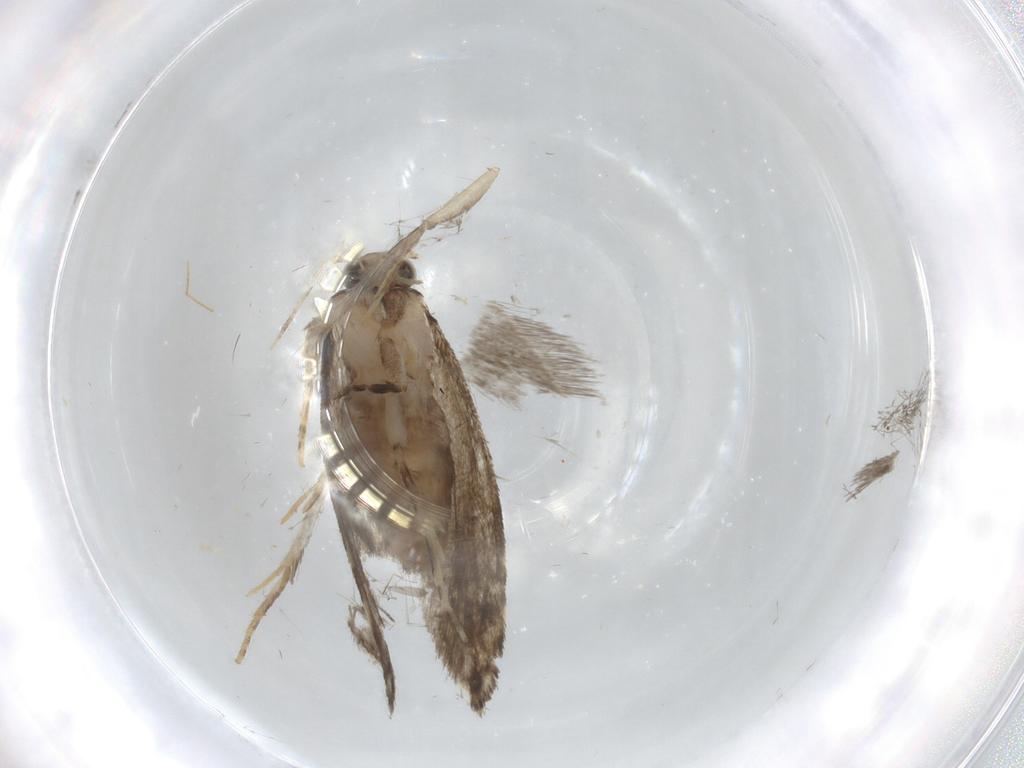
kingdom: Animalia
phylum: Arthropoda
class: Insecta
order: Lepidoptera
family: Tineidae
